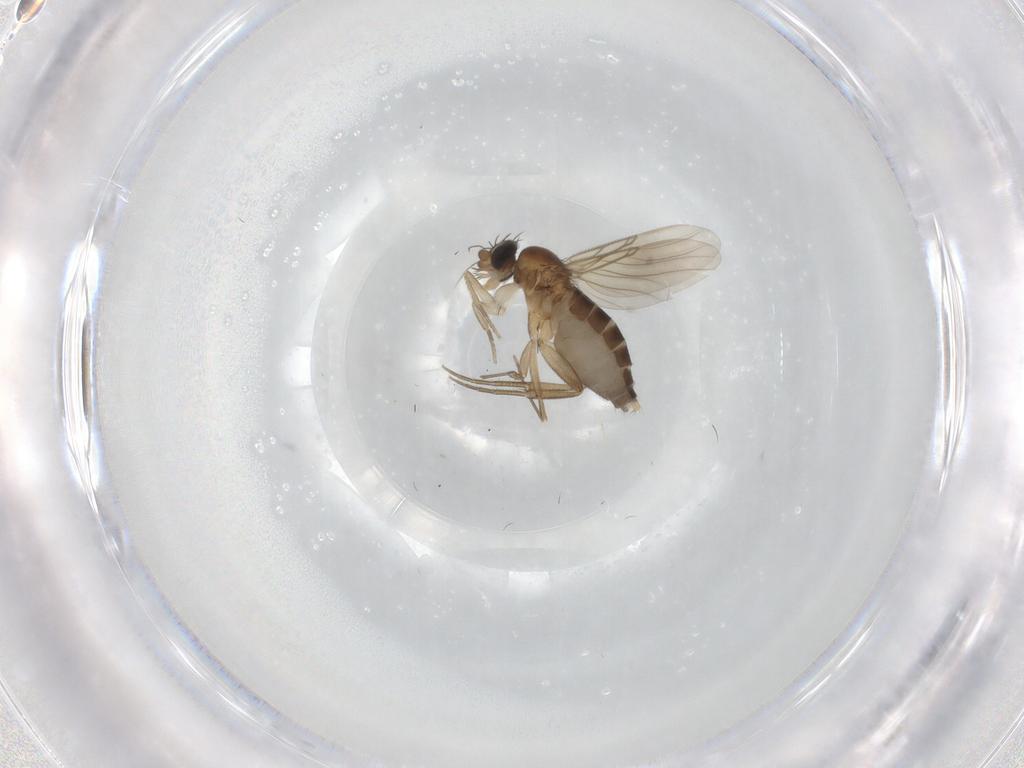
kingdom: Animalia
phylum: Arthropoda
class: Insecta
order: Diptera
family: Phoridae
